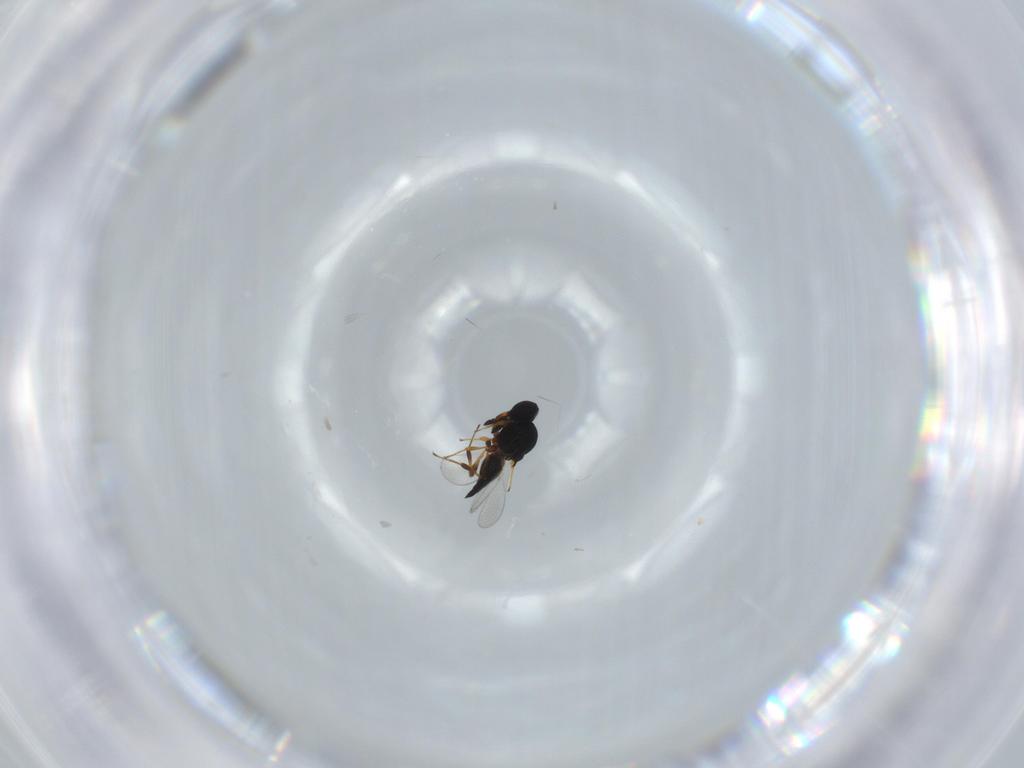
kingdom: Animalia
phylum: Arthropoda
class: Insecta
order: Hymenoptera
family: Platygastridae
